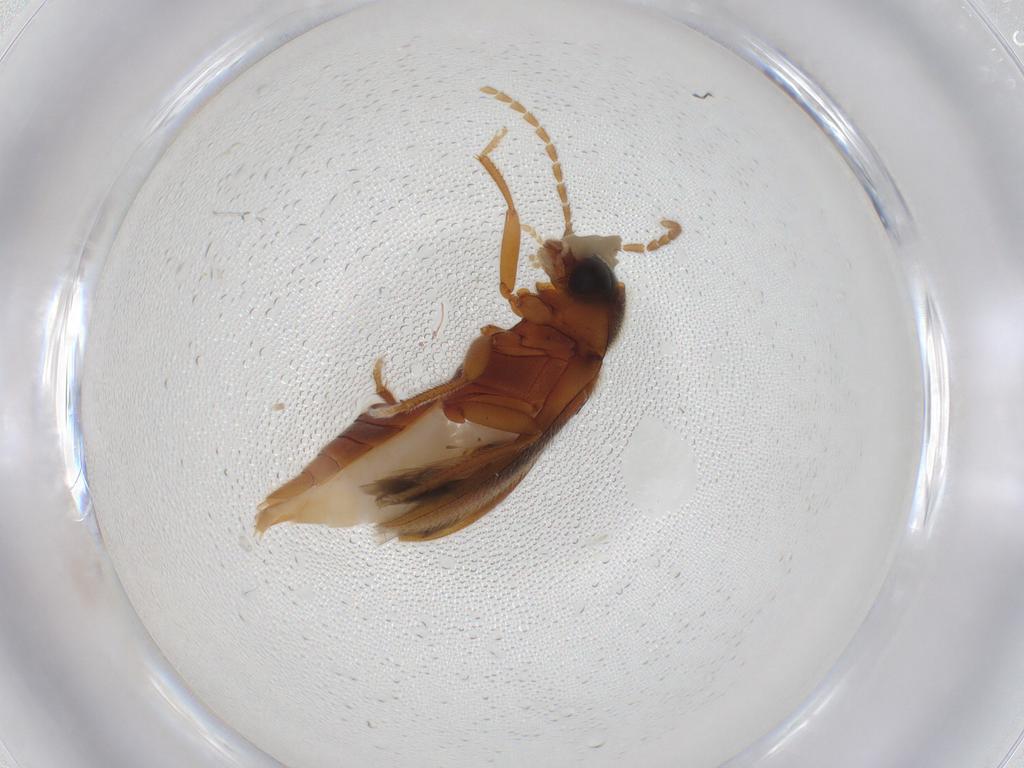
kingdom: Animalia
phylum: Arthropoda
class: Insecta
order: Coleoptera
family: Ptilodactylidae
